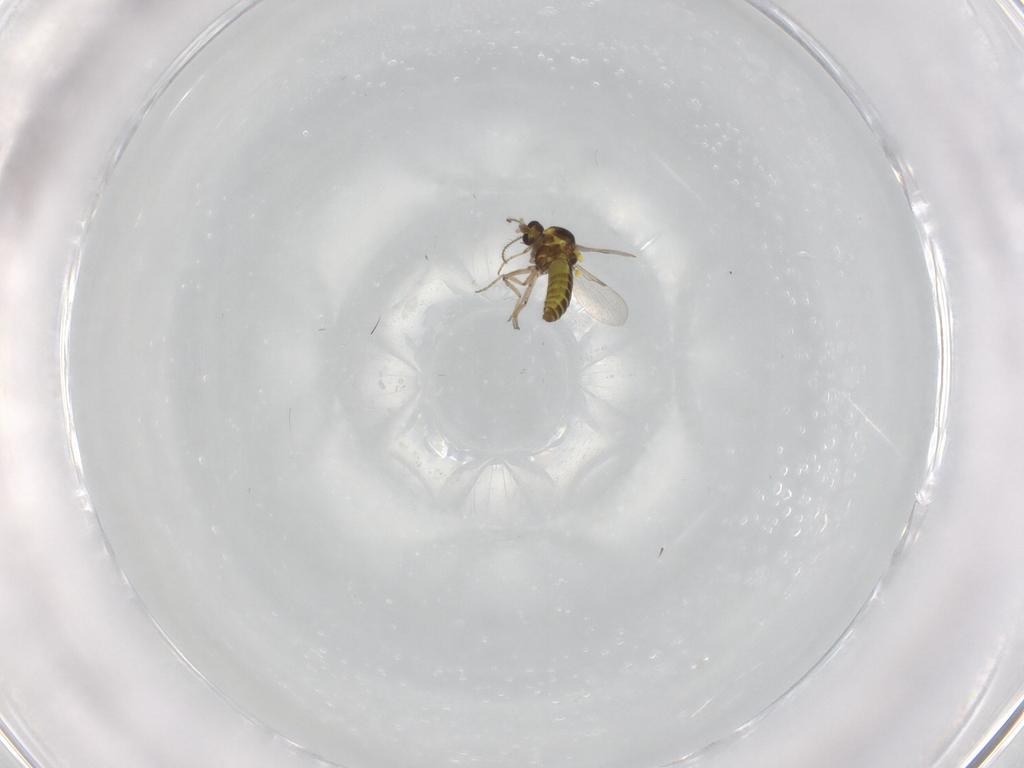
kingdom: Animalia
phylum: Arthropoda
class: Insecta
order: Diptera
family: Ceratopogonidae
